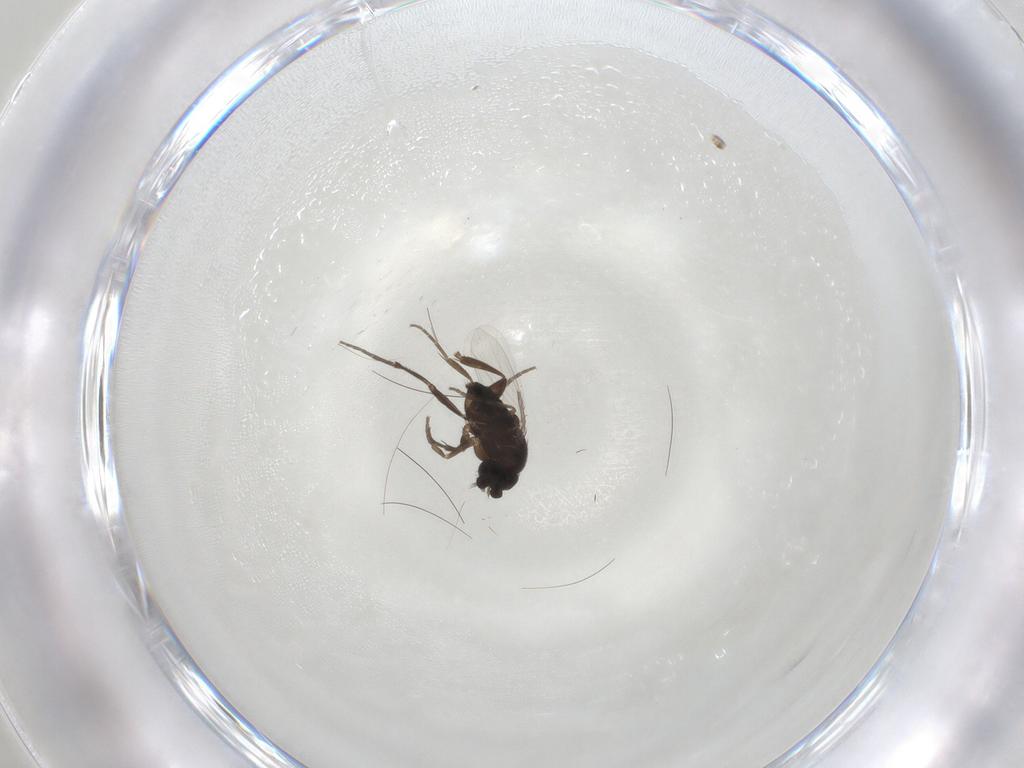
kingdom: Animalia
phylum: Arthropoda
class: Insecta
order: Diptera
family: Phoridae
